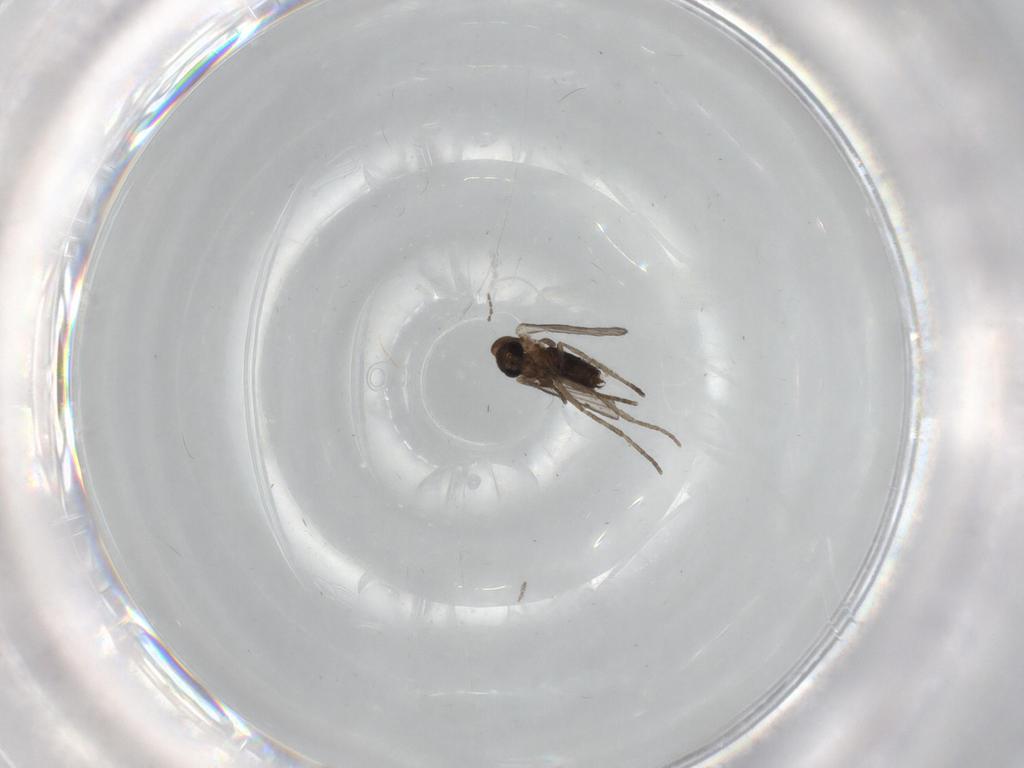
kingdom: Animalia
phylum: Arthropoda
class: Insecta
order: Diptera
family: Sciaridae
